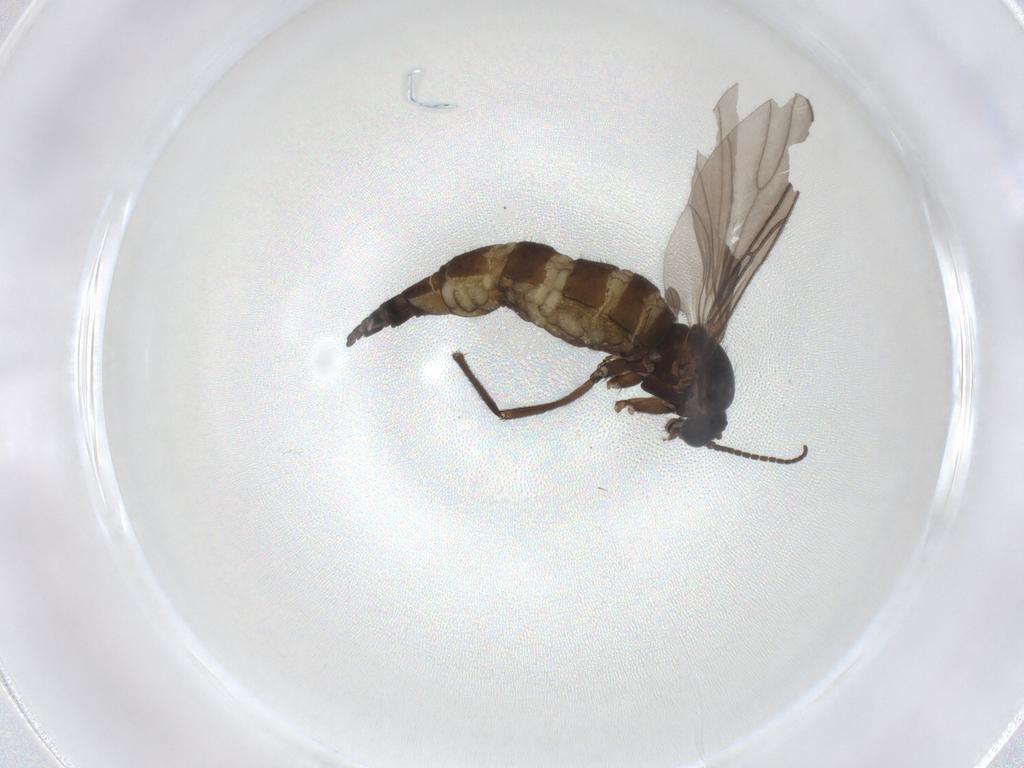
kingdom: Animalia
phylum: Arthropoda
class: Insecta
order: Diptera
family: Sciaridae
